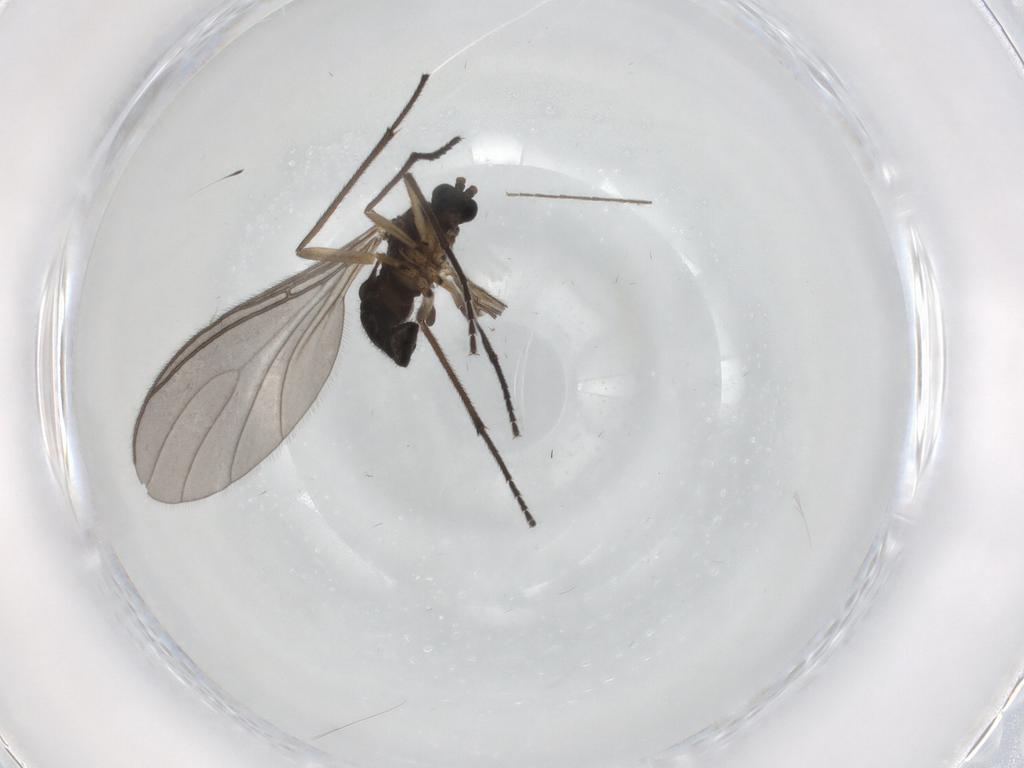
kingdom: Animalia
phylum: Arthropoda
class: Insecta
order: Diptera
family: Sciaridae
